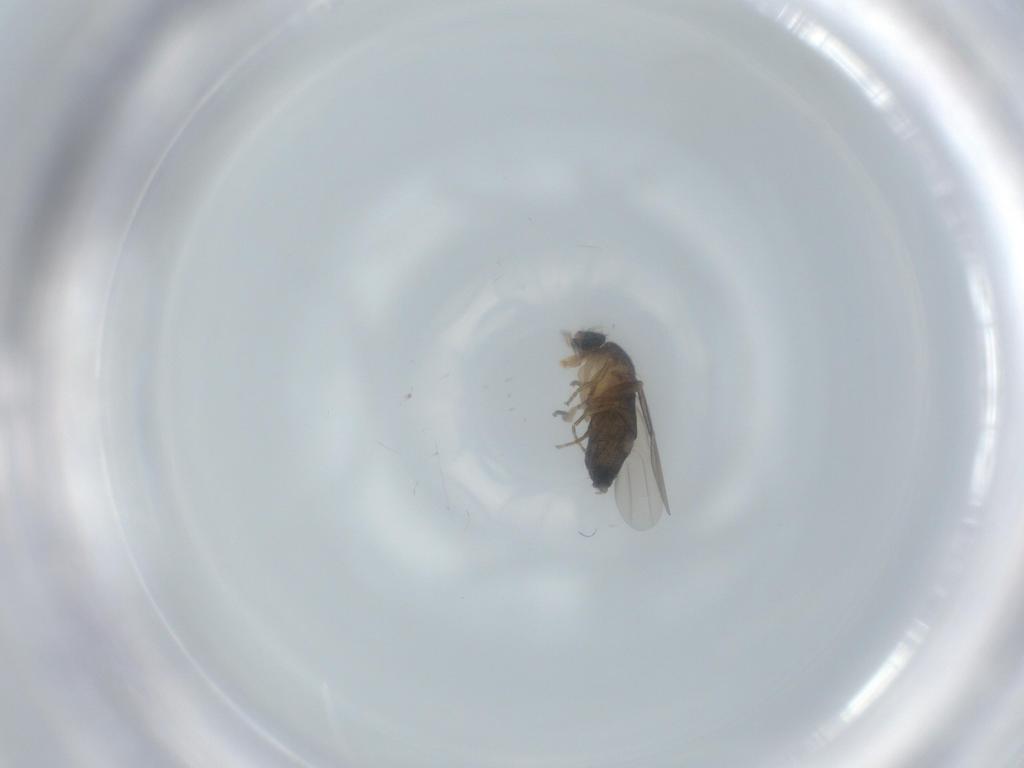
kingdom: Animalia
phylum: Arthropoda
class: Insecta
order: Diptera
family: Phoridae
